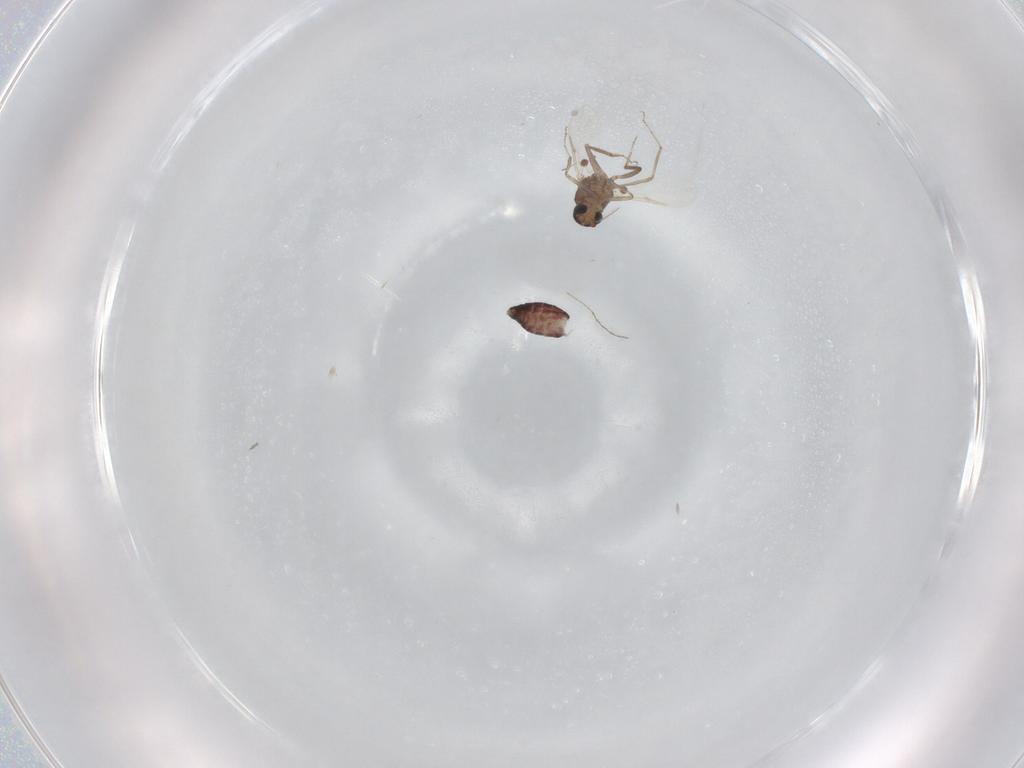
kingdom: Animalia
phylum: Arthropoda
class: Insecta
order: Diptera
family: Ceratopogonidae
